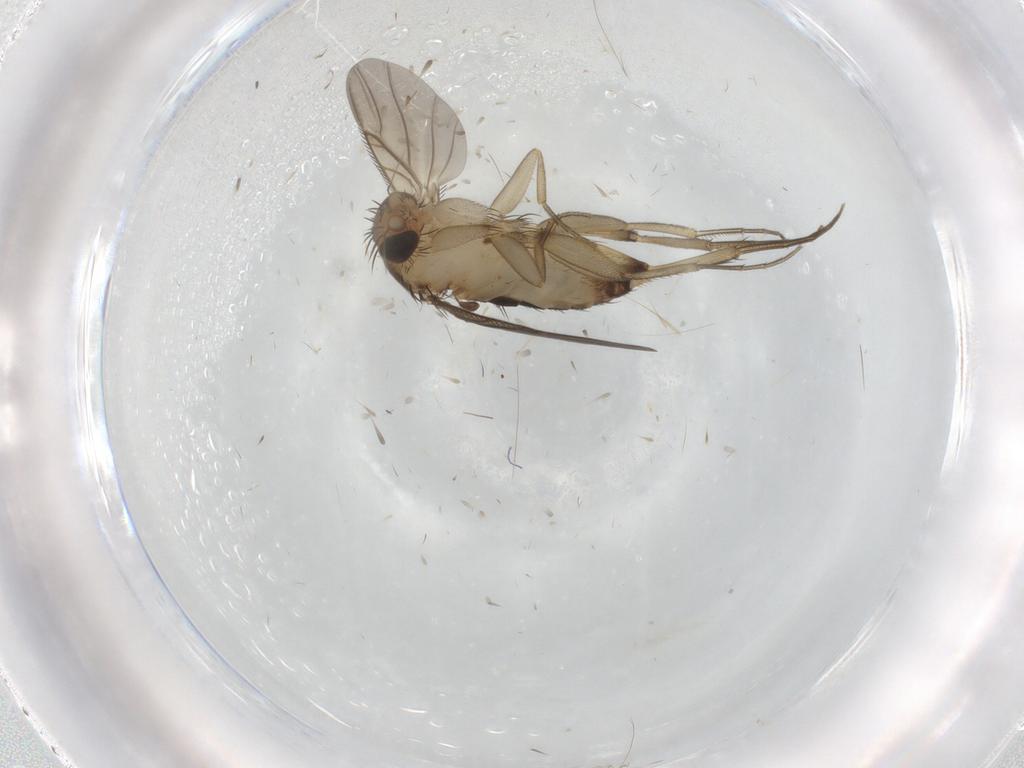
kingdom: Animalia
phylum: Arthropoda
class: Insecta
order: Diptera
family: Phoridae
